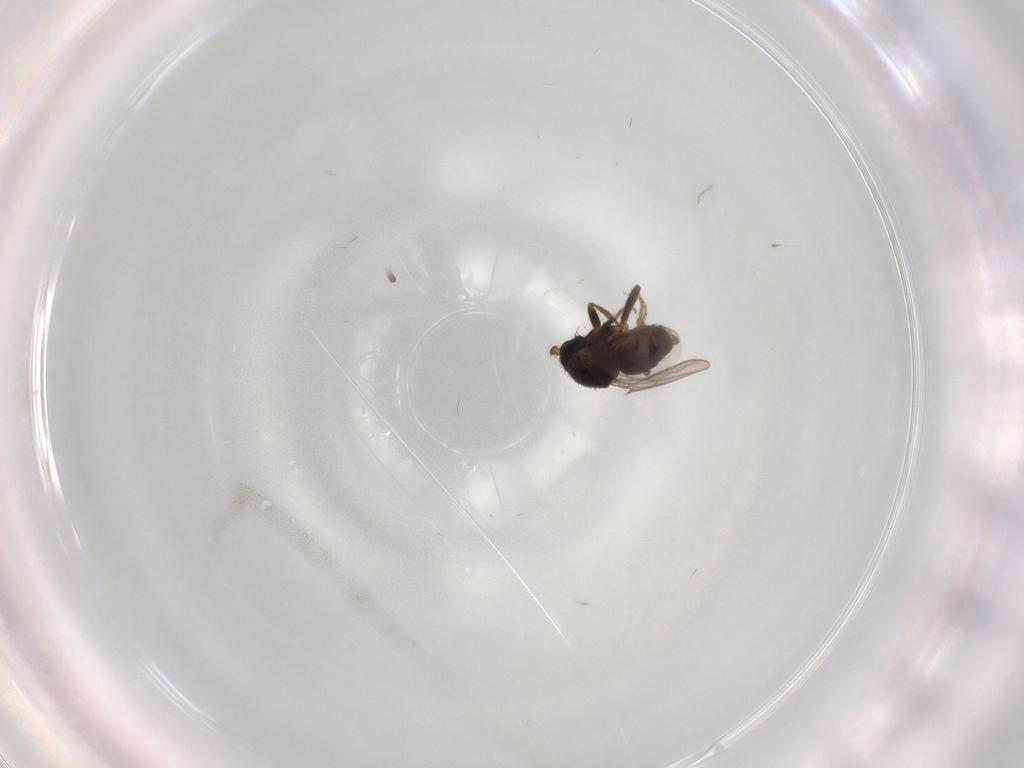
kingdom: Animalia
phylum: Arthropoda
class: Insecta
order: Diptera
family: Sphaeroceridae
